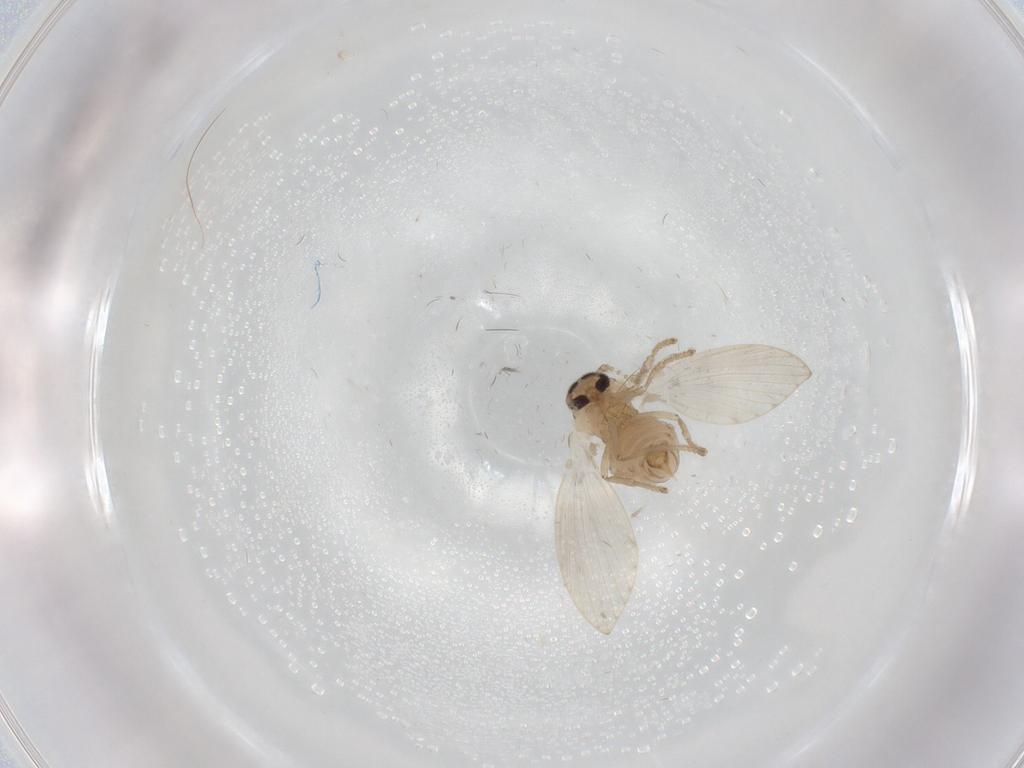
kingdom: Animalia
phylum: Arthropoda
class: Insecta
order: Diptera
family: Psychodidae
